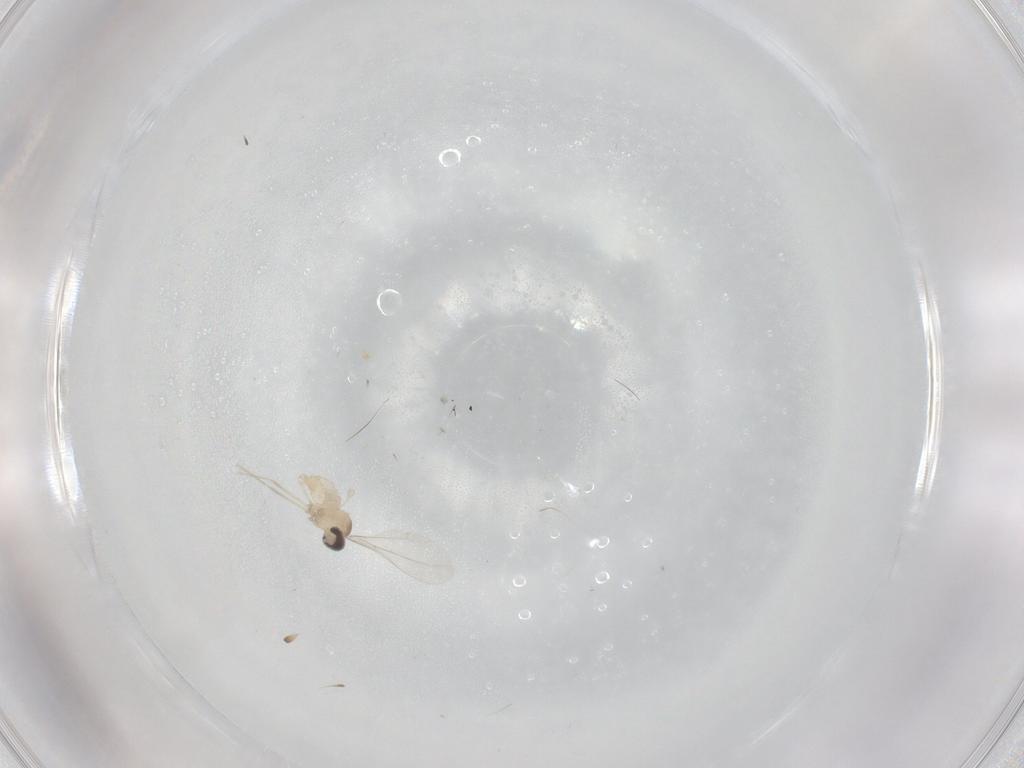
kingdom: Animalia
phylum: Arthropoda
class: Insecta
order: Diptera
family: Cecidomyiidae
